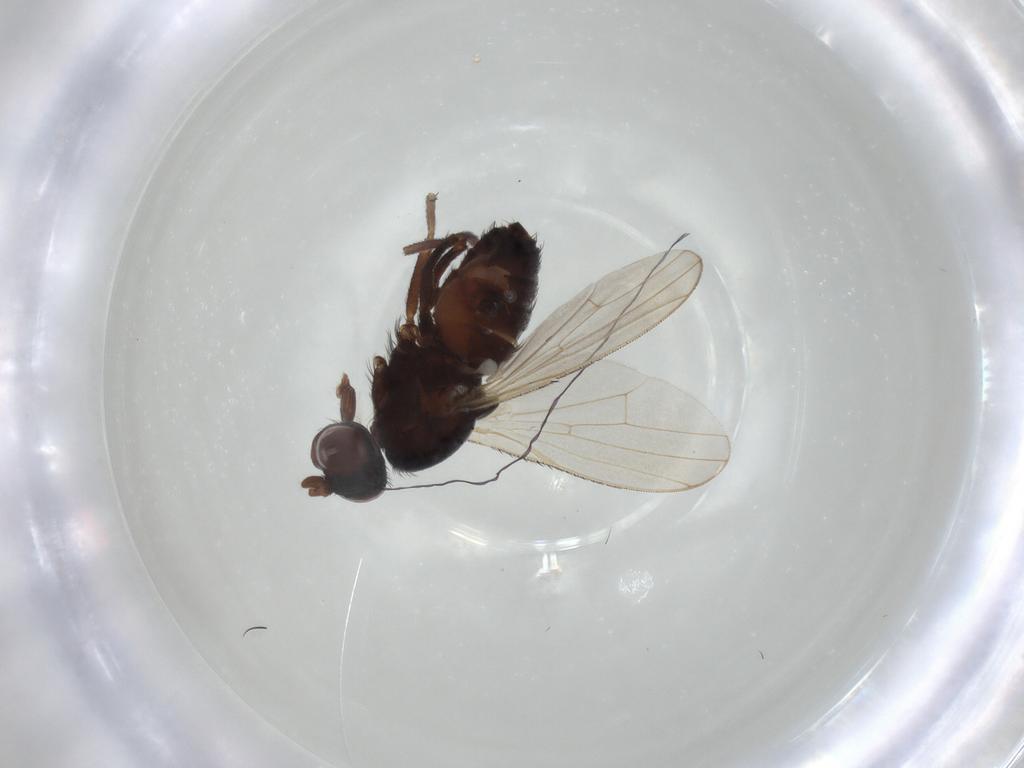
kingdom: Animalia
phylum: Arthropoda
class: Insecta
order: Diptera
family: Heleomyzidae
